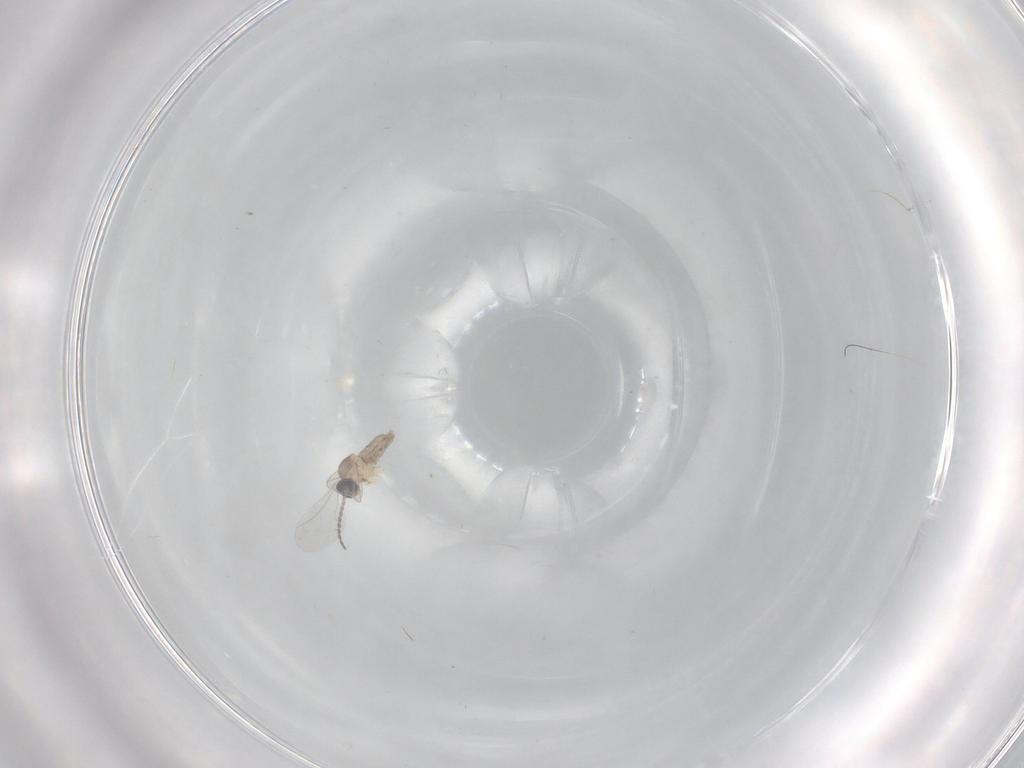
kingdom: Animalia
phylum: Arthropoda
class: Insecta
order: Diptera
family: Cecidomyiidae
